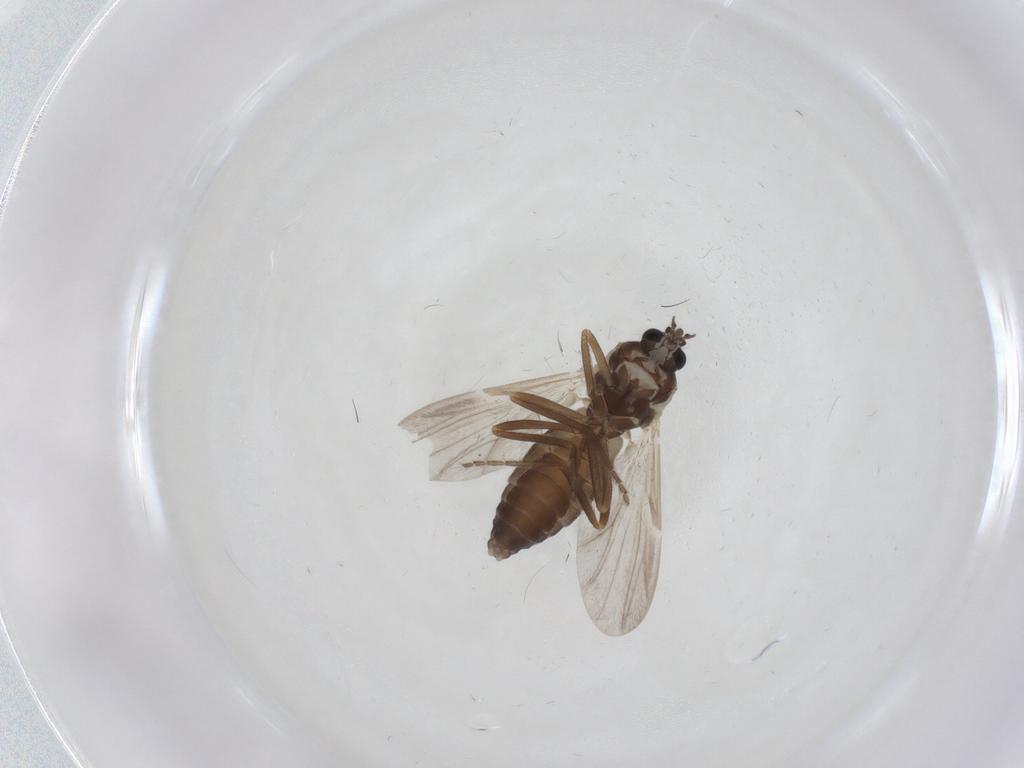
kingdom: Animalia
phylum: Arthropoda
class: Insecta
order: Diptera
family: Ceratopogonidae
